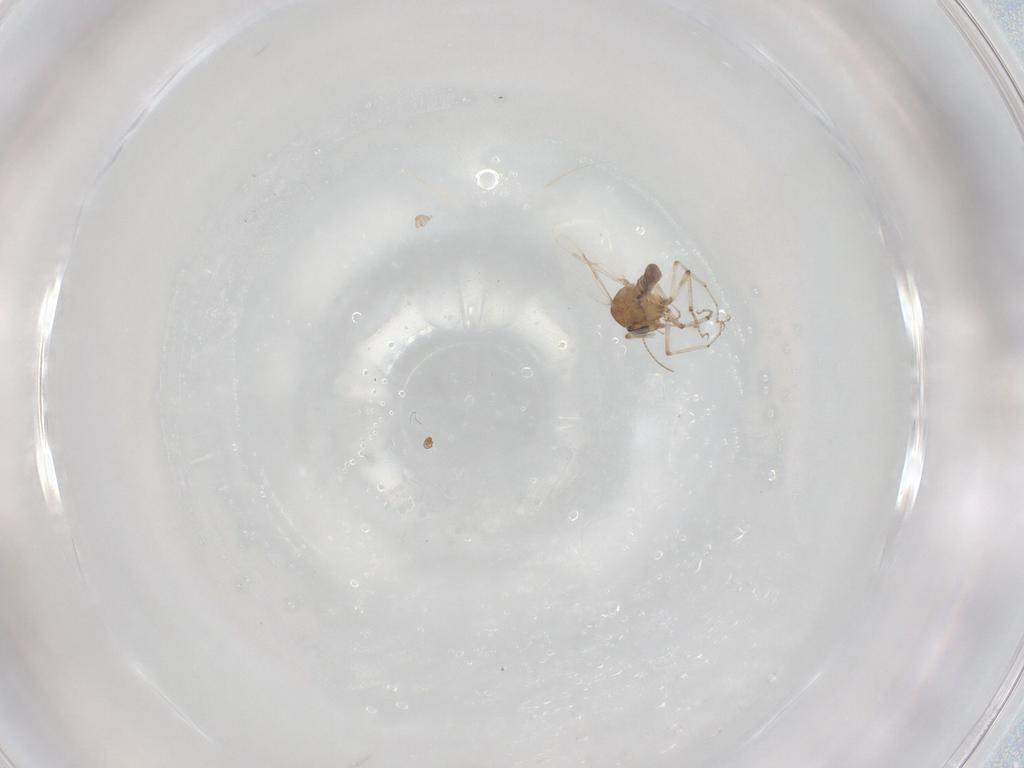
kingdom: Animalia
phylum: Arthropoda
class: Insecta
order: Diptera
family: Ceratopogonidae
